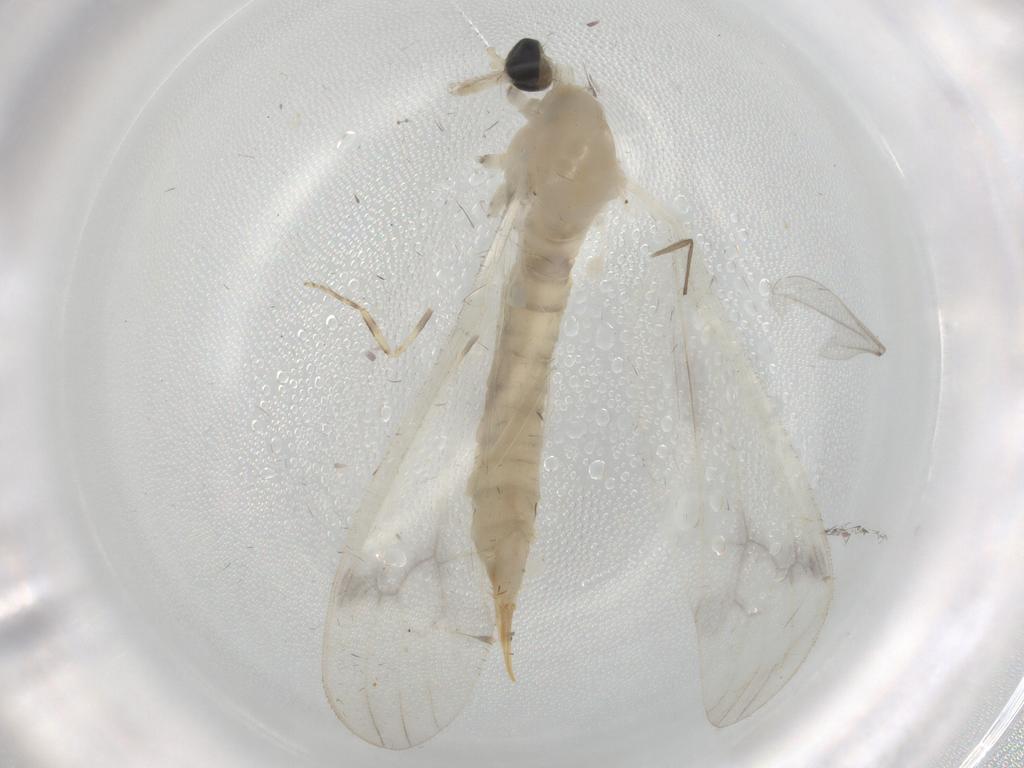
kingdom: Animalia
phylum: Arthropoda
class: Insecta
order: Diptera
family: Limoniidae
